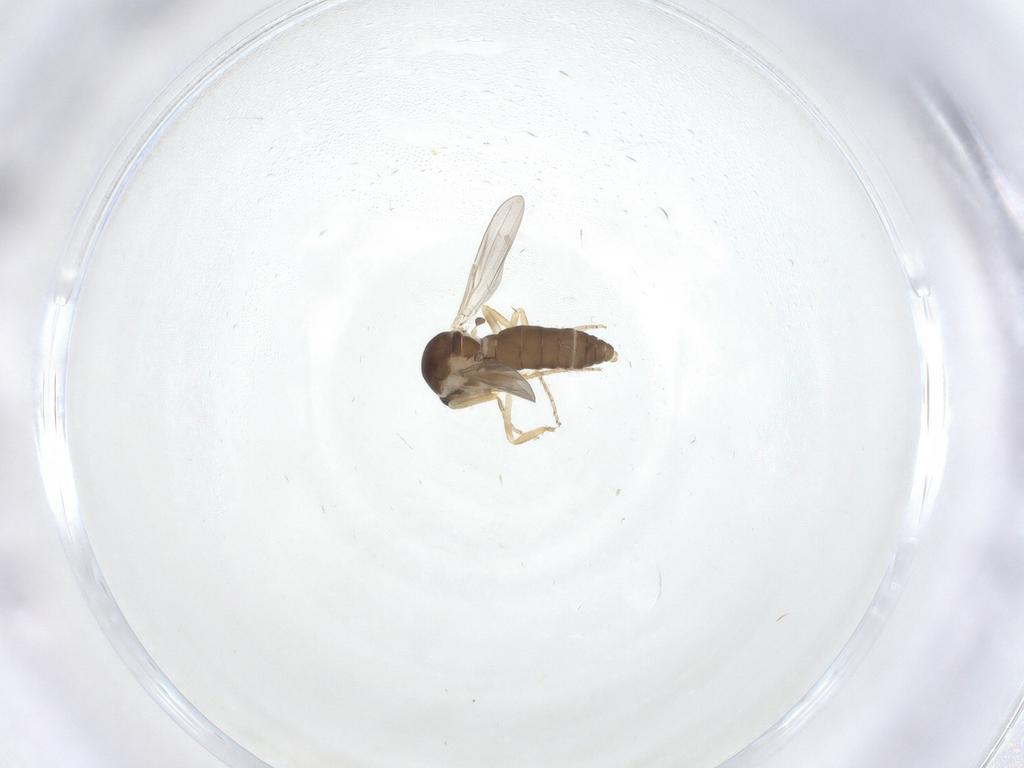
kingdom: Animalia
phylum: Arthropoda
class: Insecta
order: Diptera
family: Ceratopogonidae
